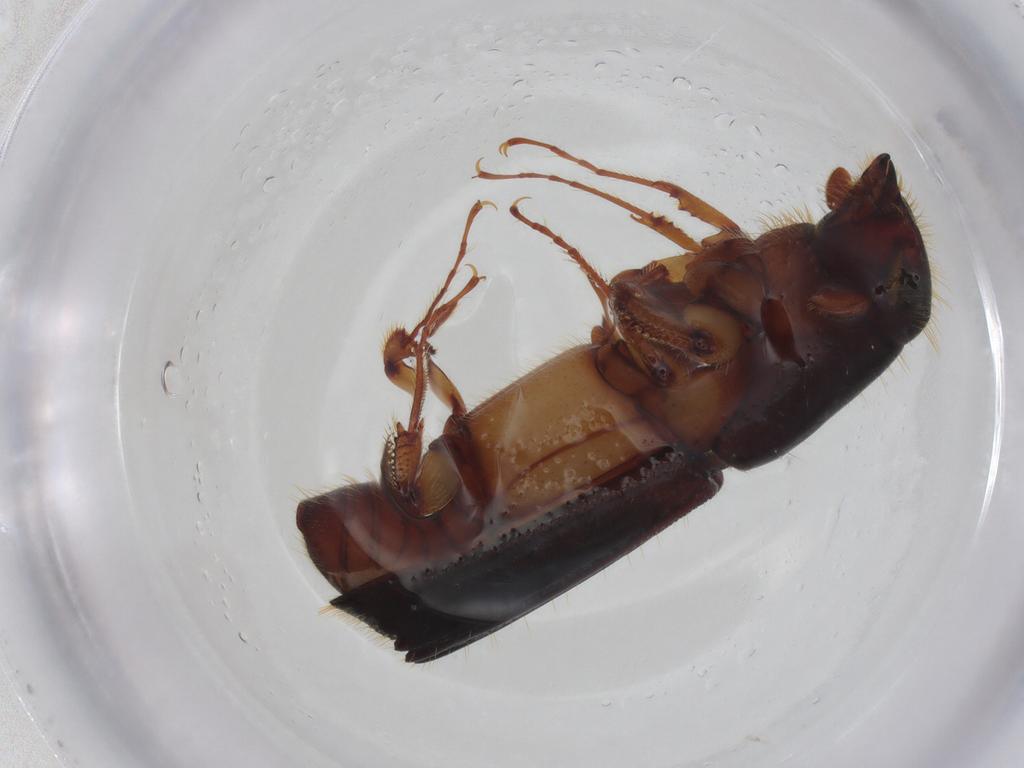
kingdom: Animalia
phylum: Arthropoda
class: Insecta
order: Coleoptera
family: Curculionidae
